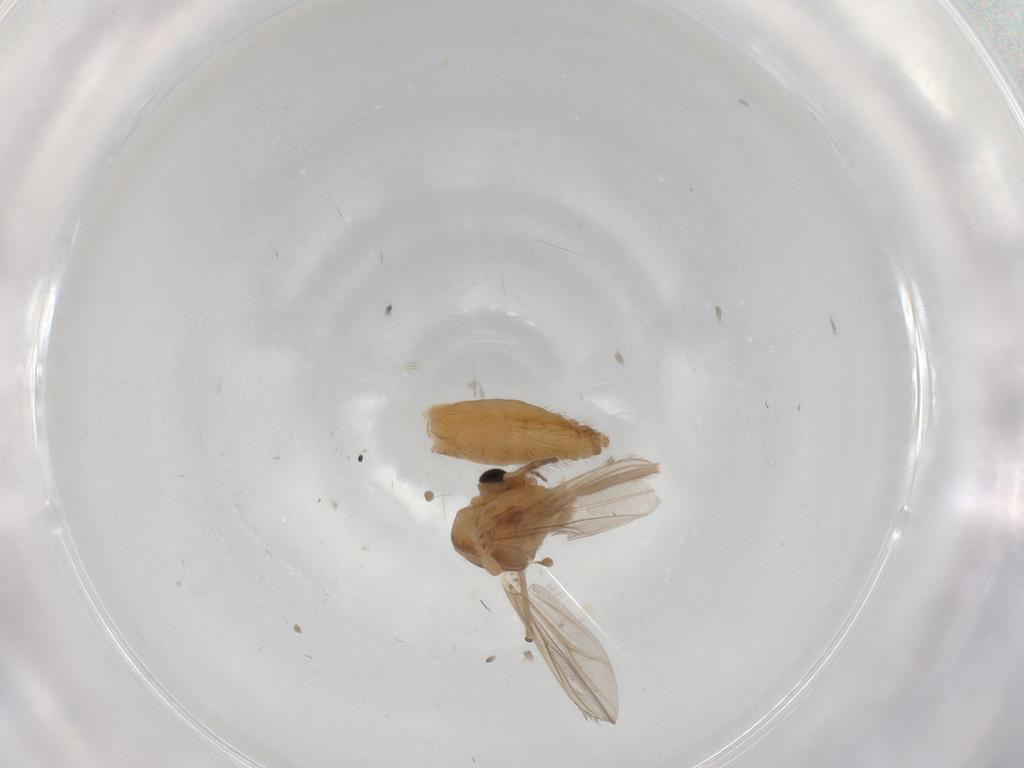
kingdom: Animalia
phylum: Arthropoda
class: Insecta
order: Diptera
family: Chironomidae
